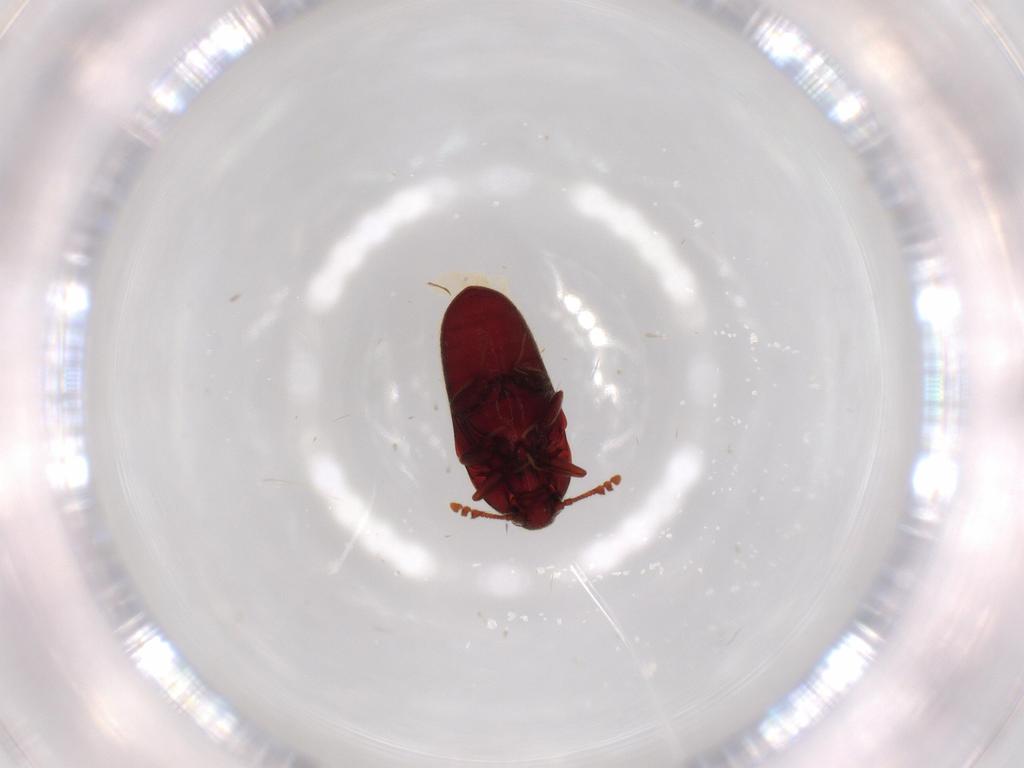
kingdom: Animalia
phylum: Arthropoda
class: Insecta
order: Coleoptera
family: Throscidae
